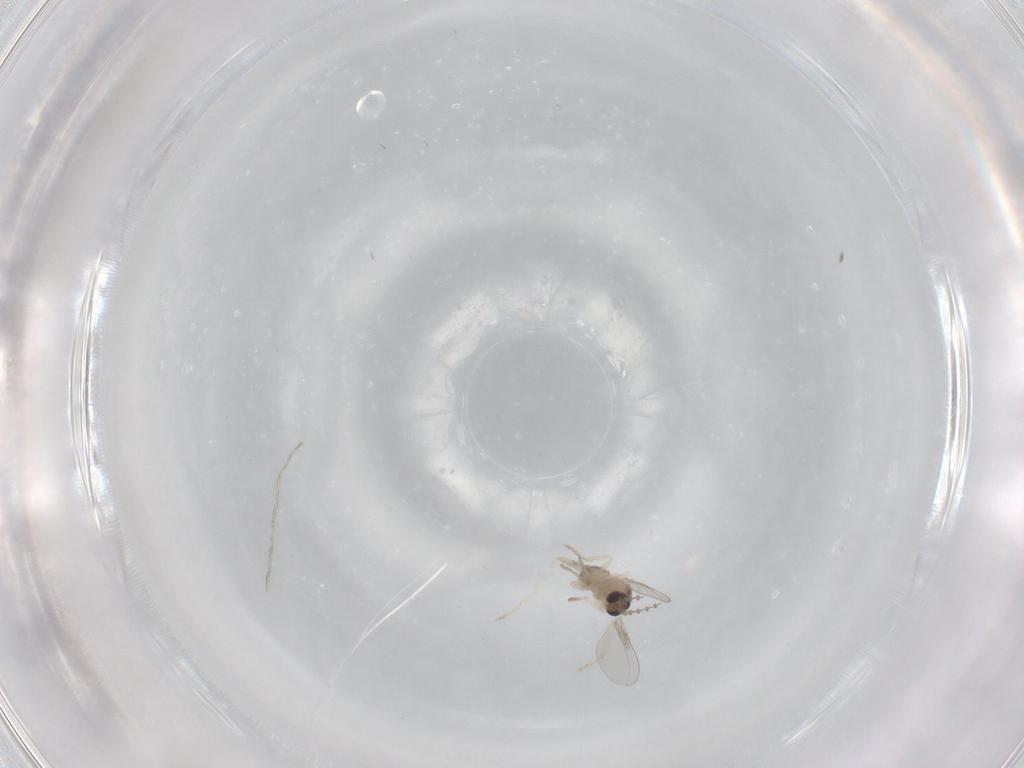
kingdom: Animalia
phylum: Arthropoda
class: Insecta
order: Diptera
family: Cecidomyiidae
